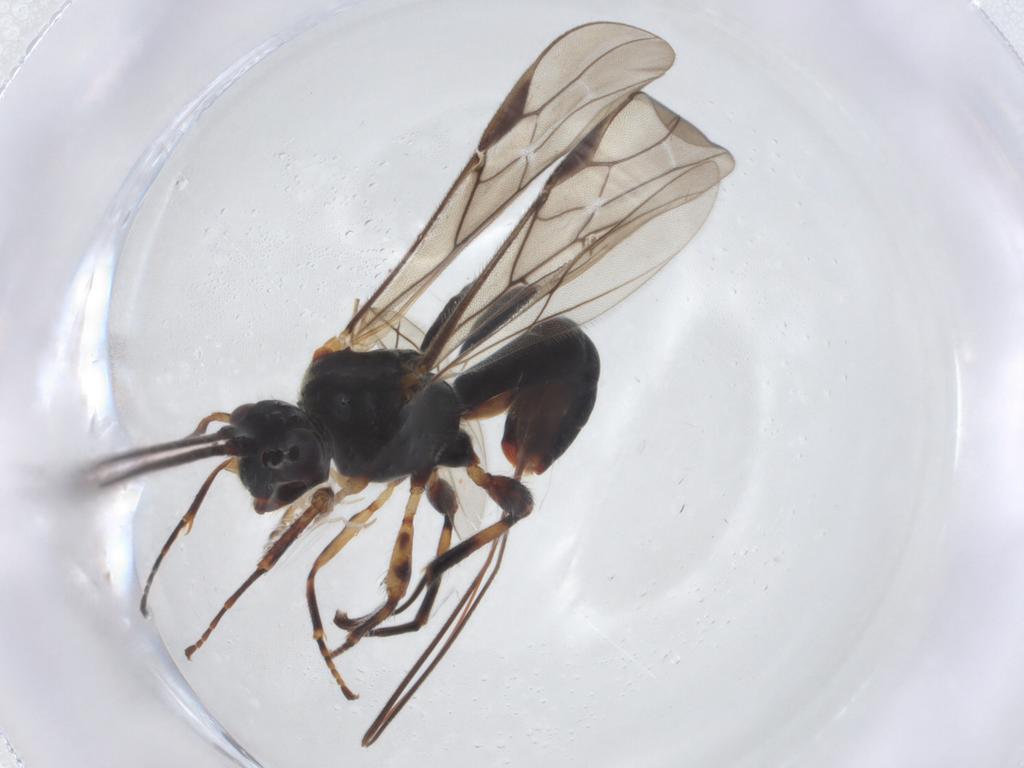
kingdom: Animalia
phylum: Arthropoda
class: Insecta
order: Hymenoptera
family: Braconidae
